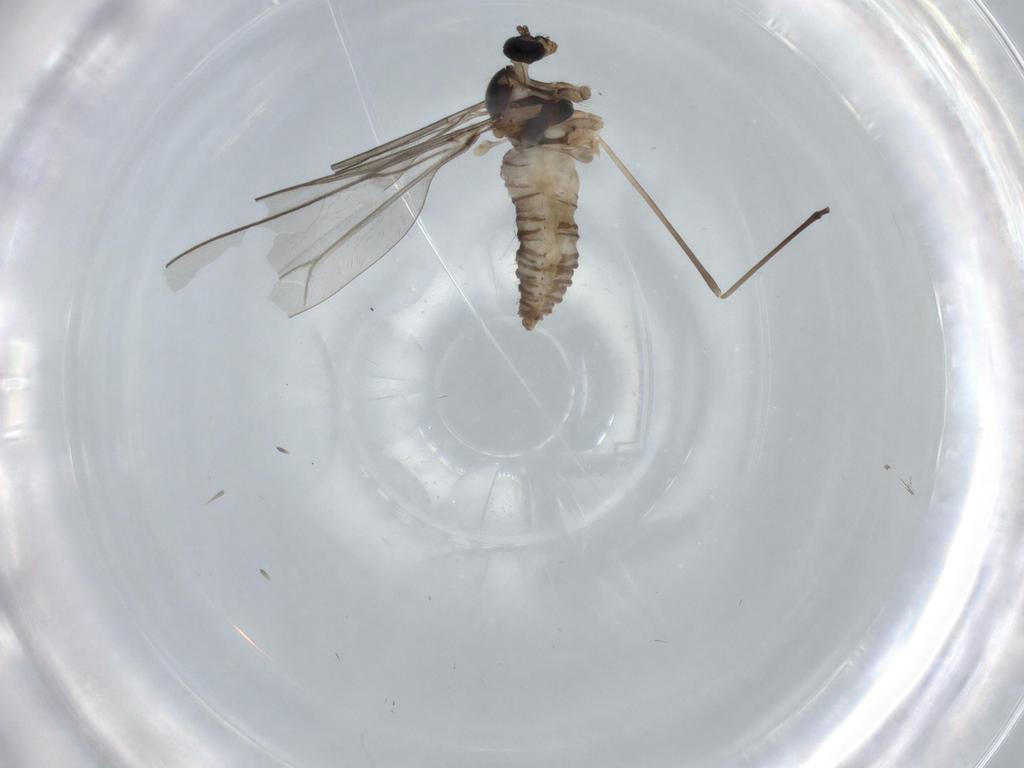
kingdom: Animalia
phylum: Arthropoda
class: Insecta
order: Diptera
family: Cecidomyiidae
